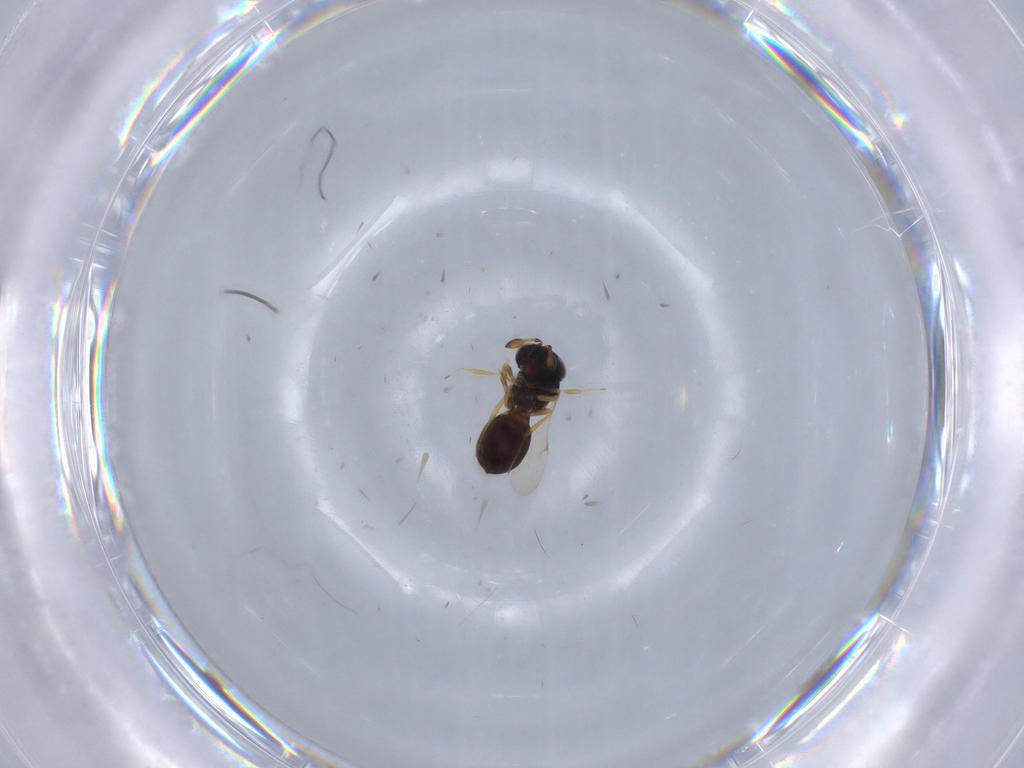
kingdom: Animalia
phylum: Arthropoda
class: Insecta
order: Hymenoptera
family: Scelionidae
